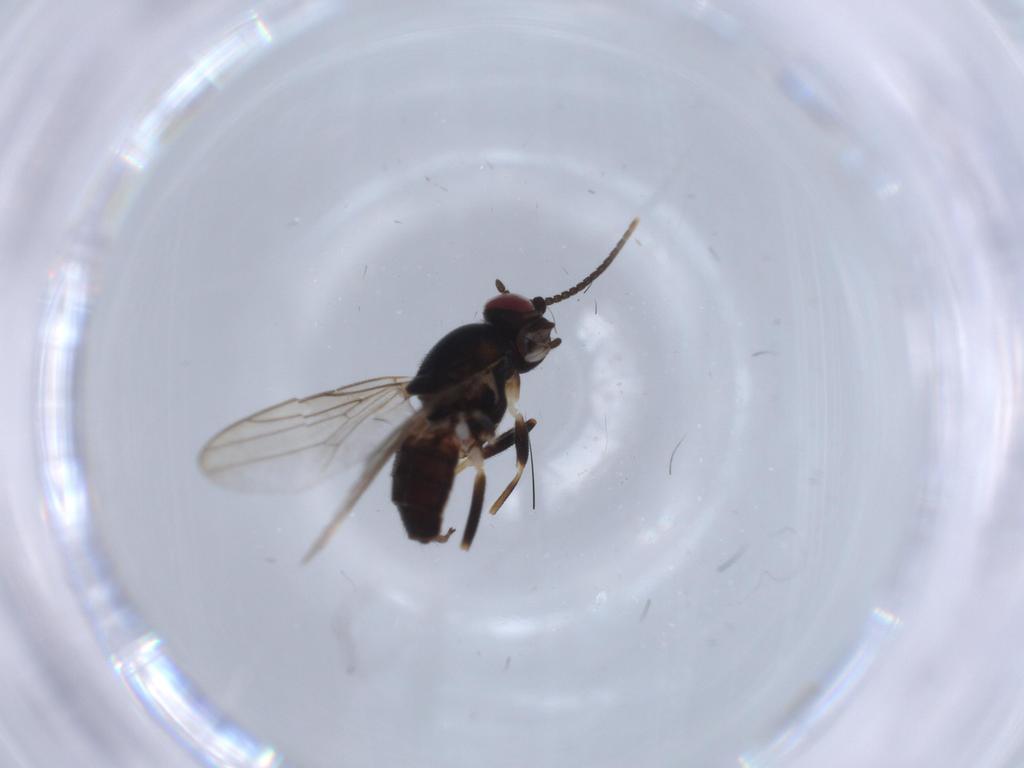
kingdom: Animalia
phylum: Arthropoda
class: Insecta
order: Diptera
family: Chloropidae
